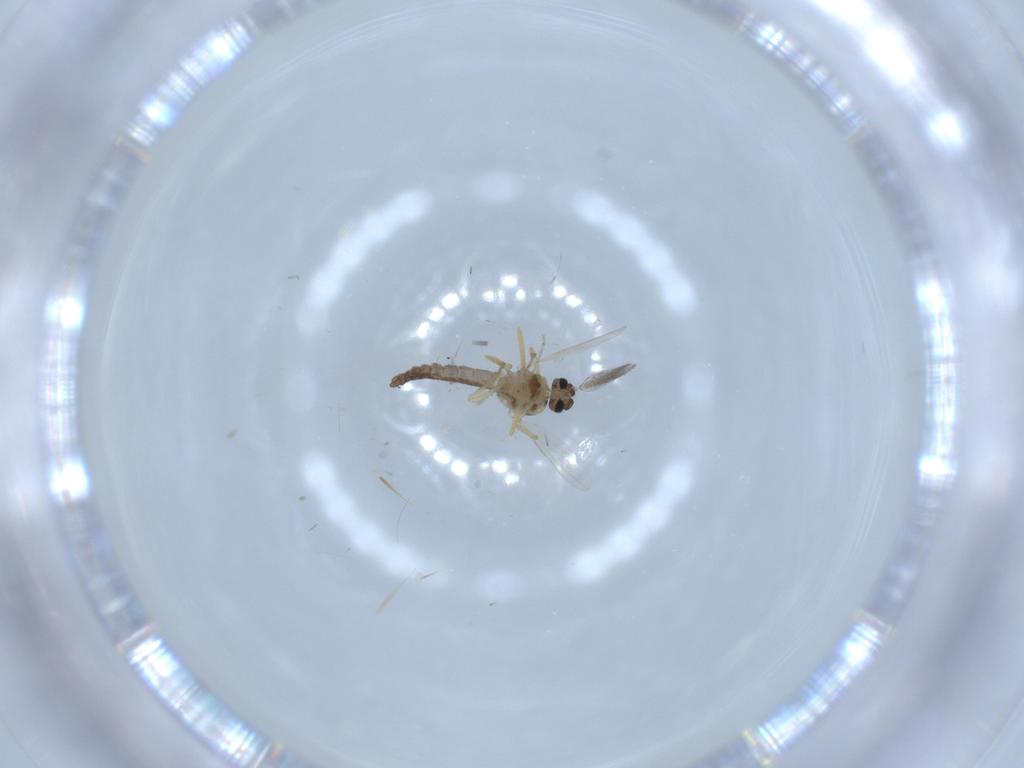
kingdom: Animalia
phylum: Arthropoda
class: Insecta
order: Diptera
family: Ceratopogonidae
